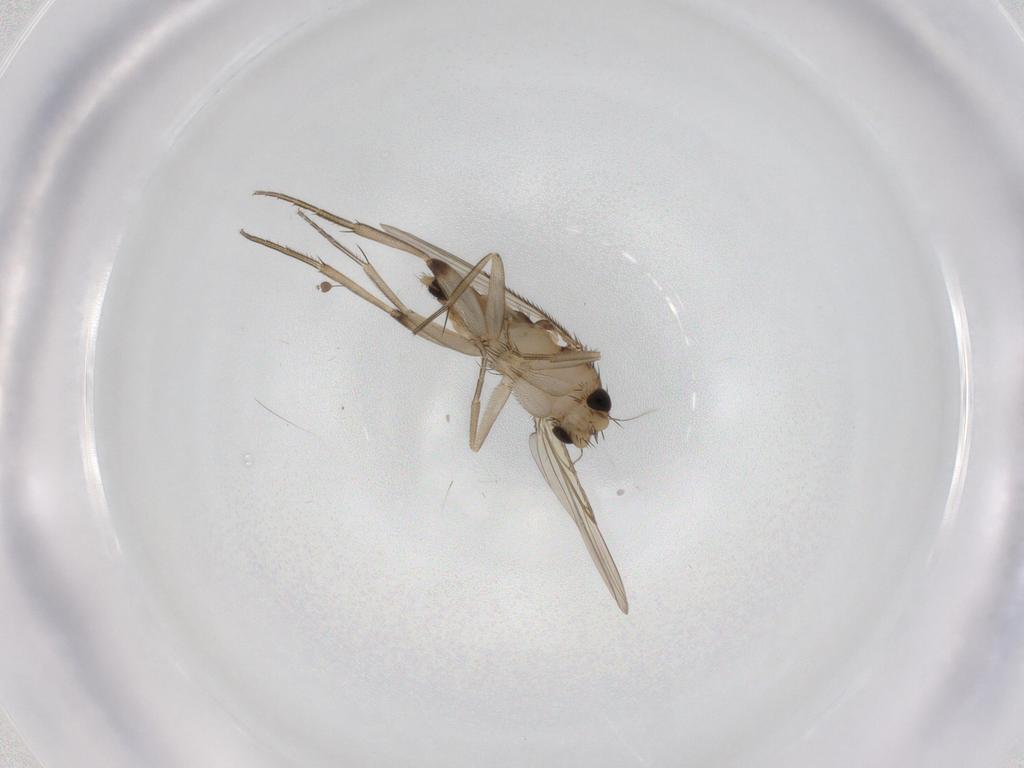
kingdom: Animalia
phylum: Arthropoda
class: Insecta
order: Diptera
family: Phoridae
